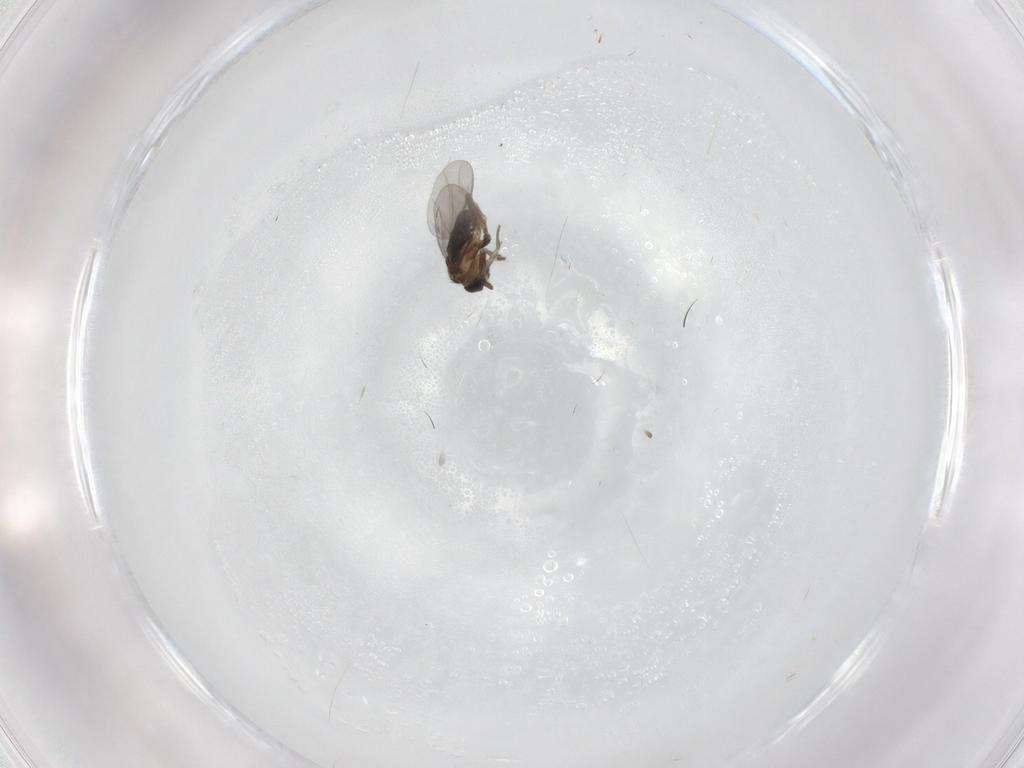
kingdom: Animalia
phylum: Arthropoda
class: Insecta
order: Diptera
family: Cecidomyiidae
